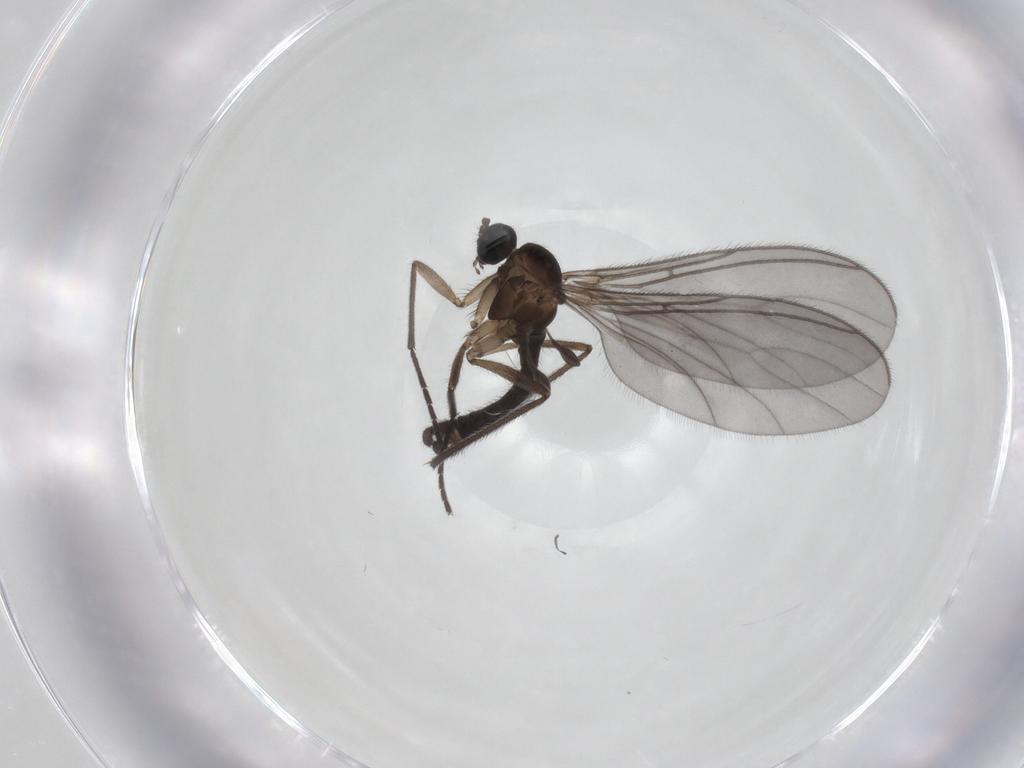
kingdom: Animalia
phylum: Arthropoda
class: Insecta
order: Diptera
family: Sciaridae
